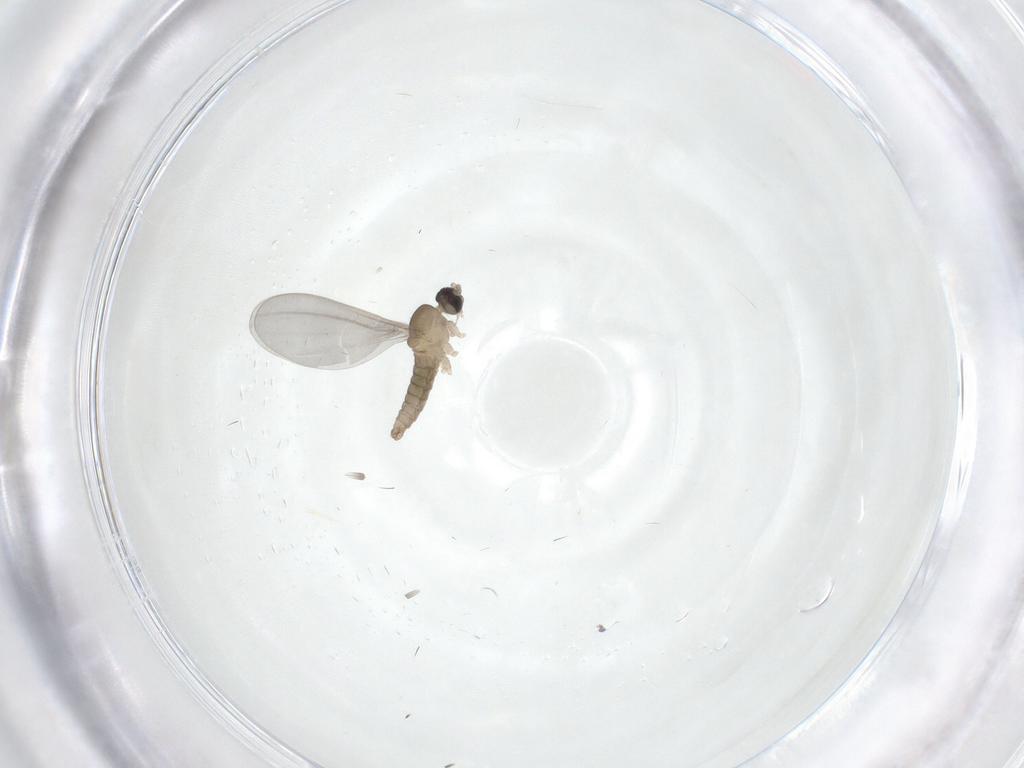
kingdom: Animalia
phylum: Arthropoda
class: Insecta
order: Diptera
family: Cecidomyiidae
